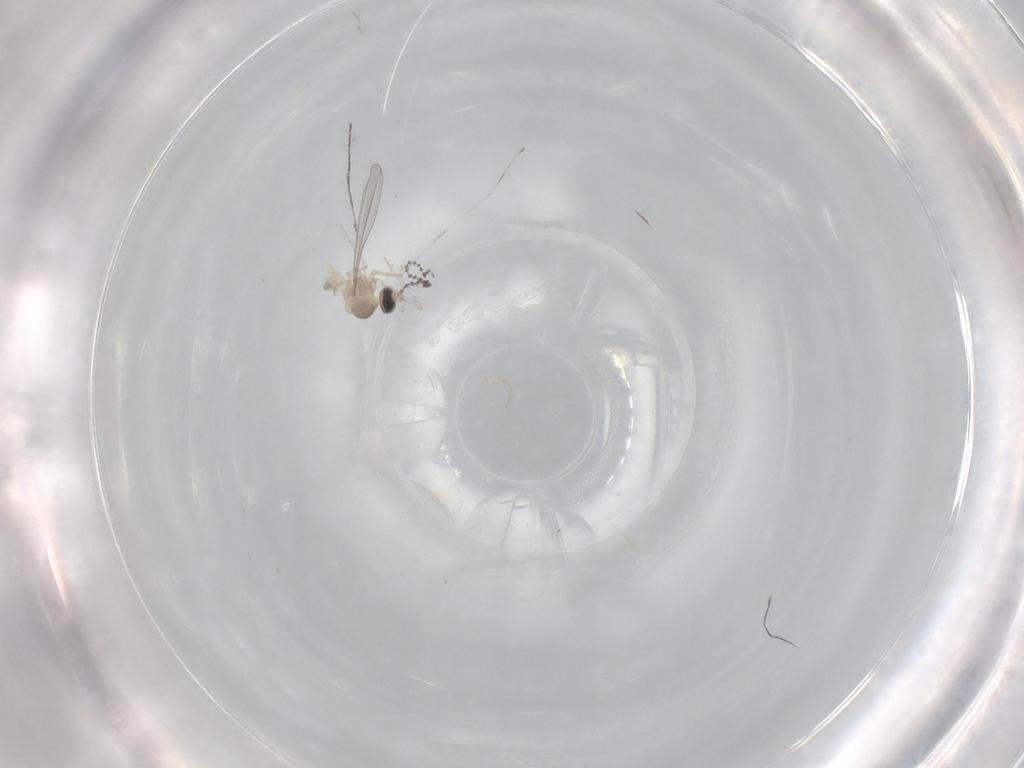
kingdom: Animalia
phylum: Arthropoda
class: Insecta
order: Diptera
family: Cecidomyiidae
